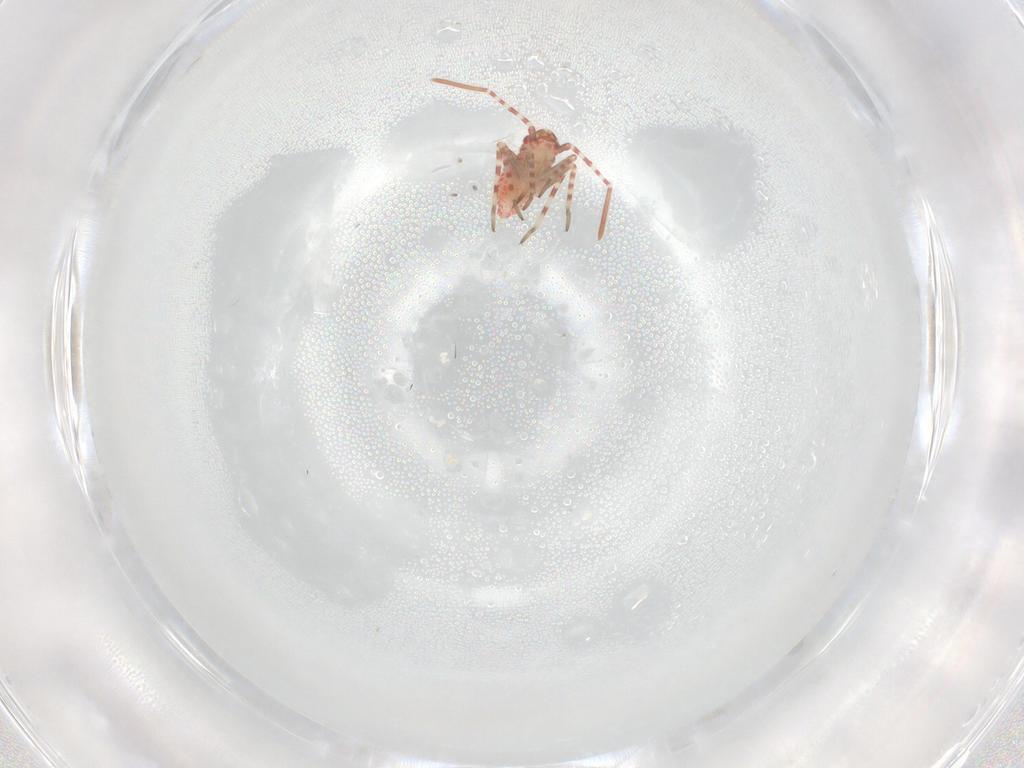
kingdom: Animalia
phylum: Arthropoda
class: Insecta
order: Hemiptera
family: Miridae
